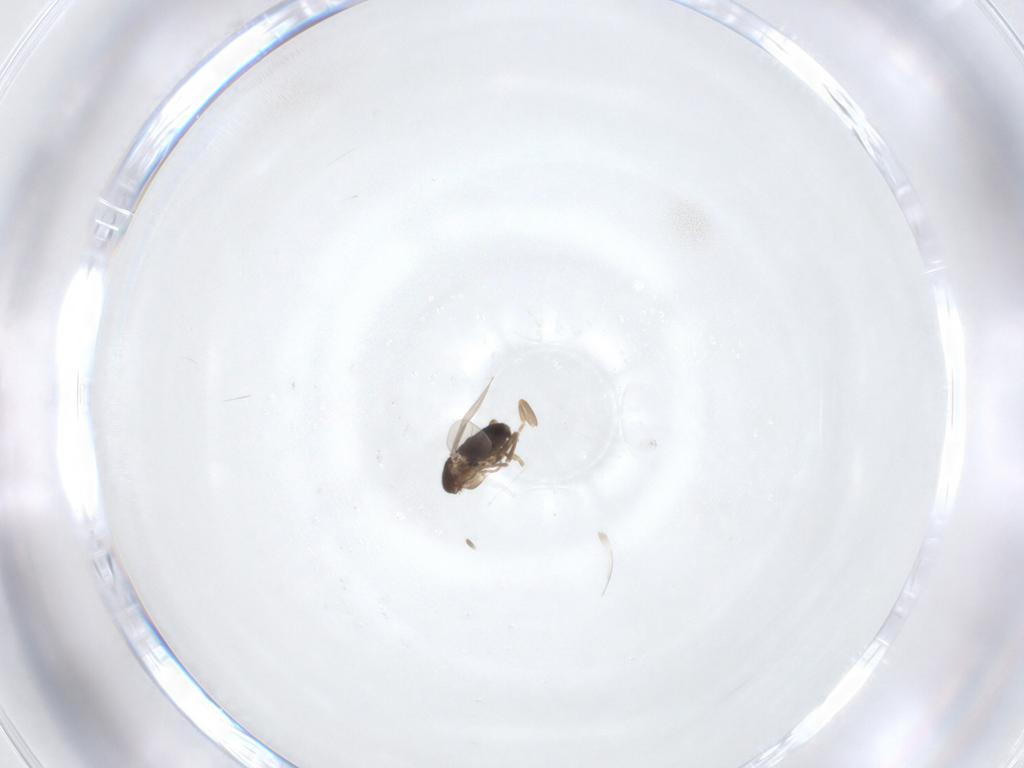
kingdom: Animalia
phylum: Arthropoda
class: Insecta
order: Diptera
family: Phoridae
